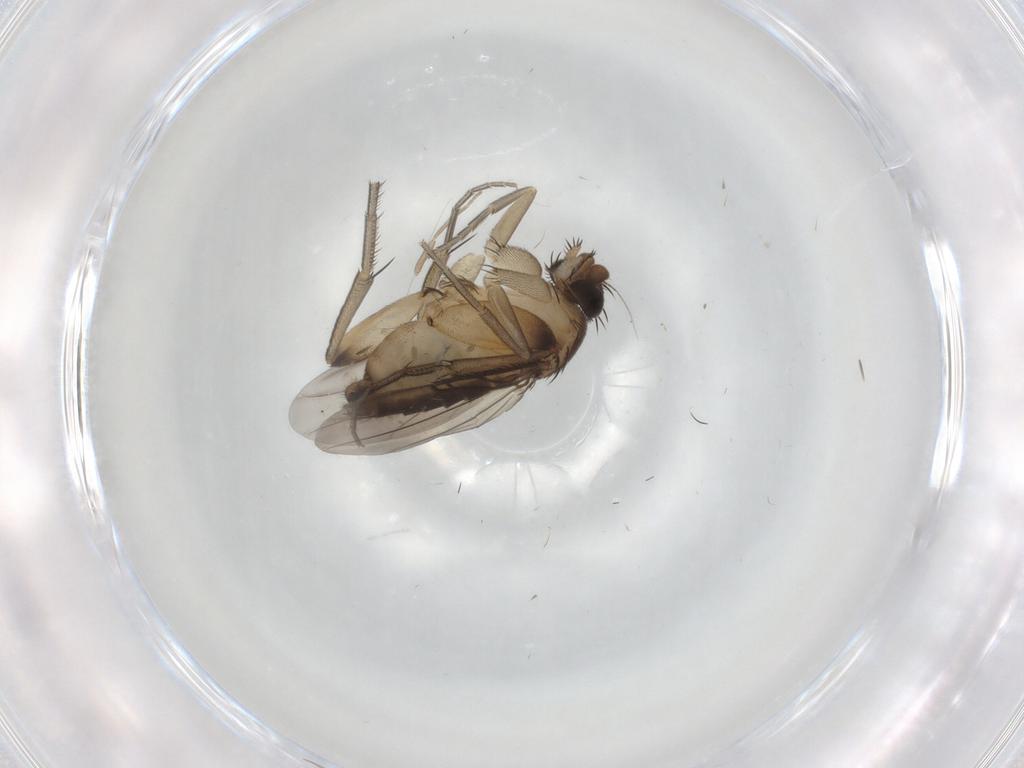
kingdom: Animalia
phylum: Arthropoda
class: Insecta
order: Diptera
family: Phoridae
